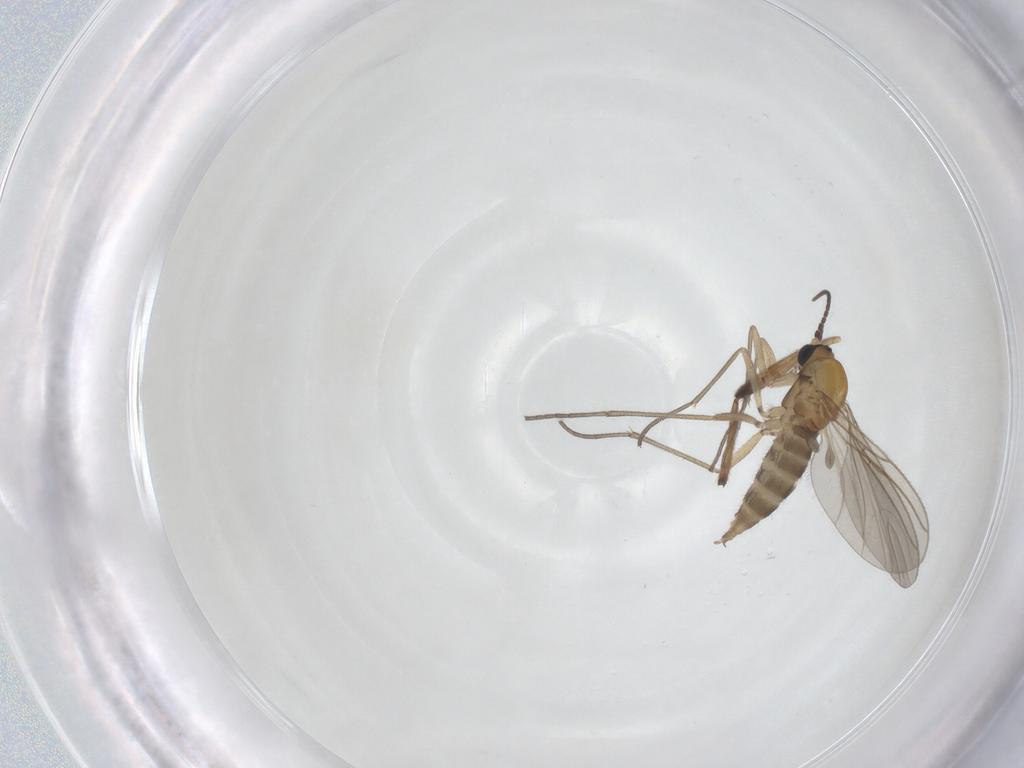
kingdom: Animalia
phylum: Arthropoda
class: Insecta
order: Diptera
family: Sciaridae
